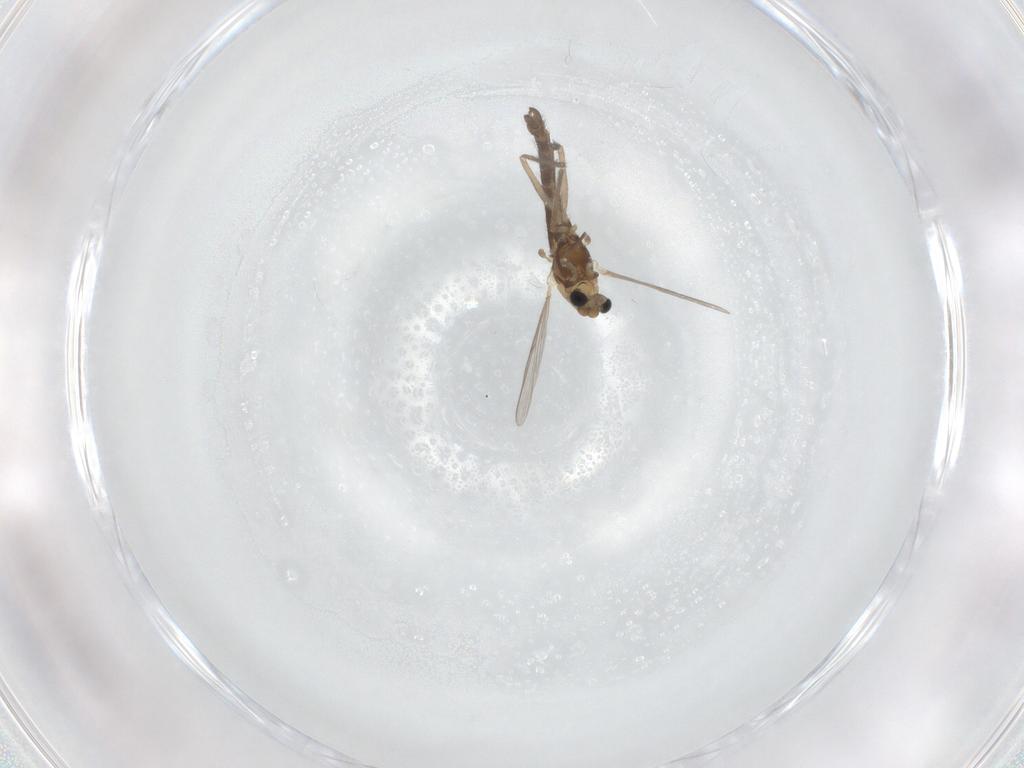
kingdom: Animalia
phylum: Arthropoda
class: Insecta
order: Diptera
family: Chironomidae
